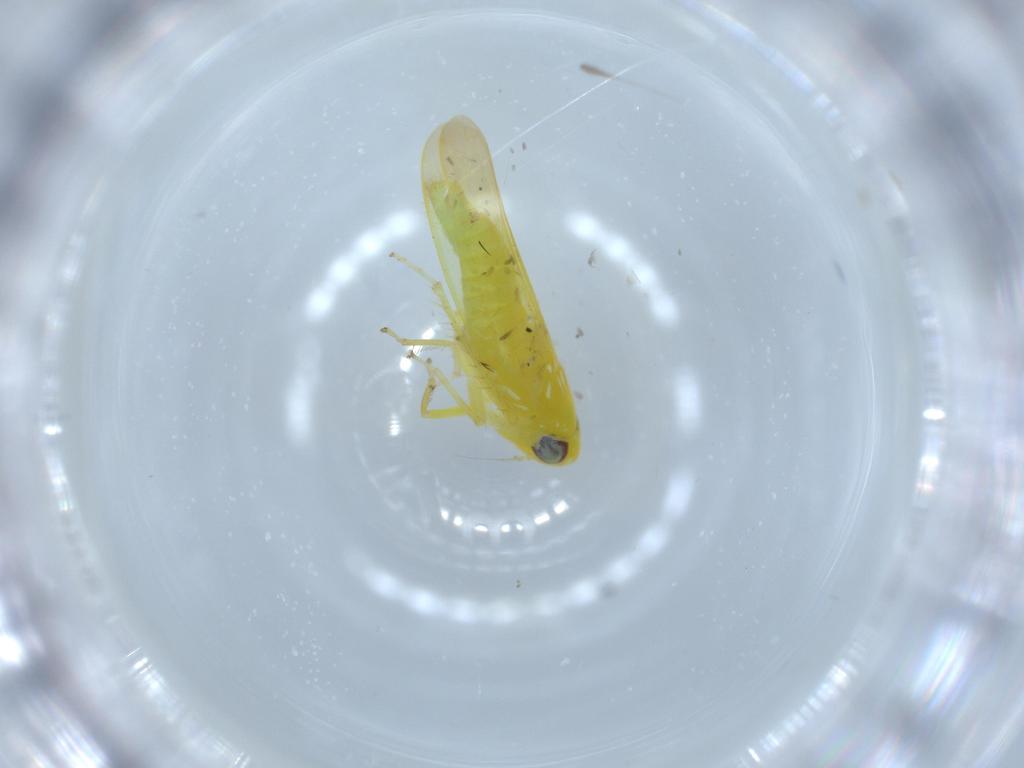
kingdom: Animalia
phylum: Arthropoda
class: Insecta
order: Hemiptera
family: Cicadellidae
